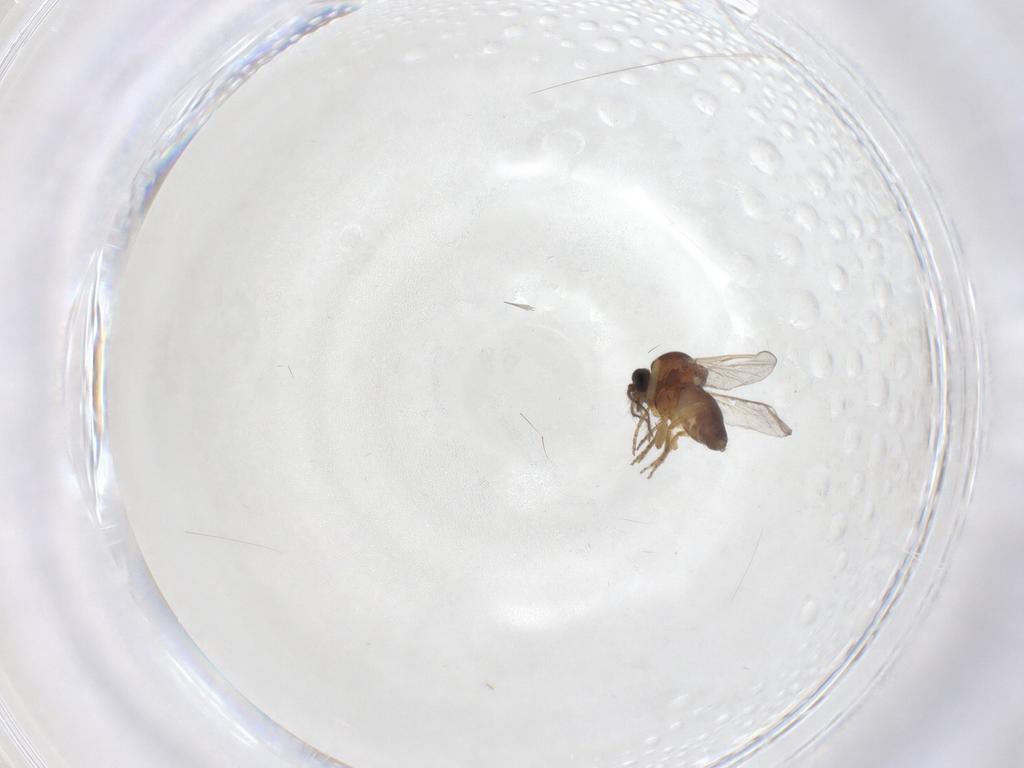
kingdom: Animalia
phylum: Arthropoda
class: Insecta
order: Diptera
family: Ceratopogonidae
